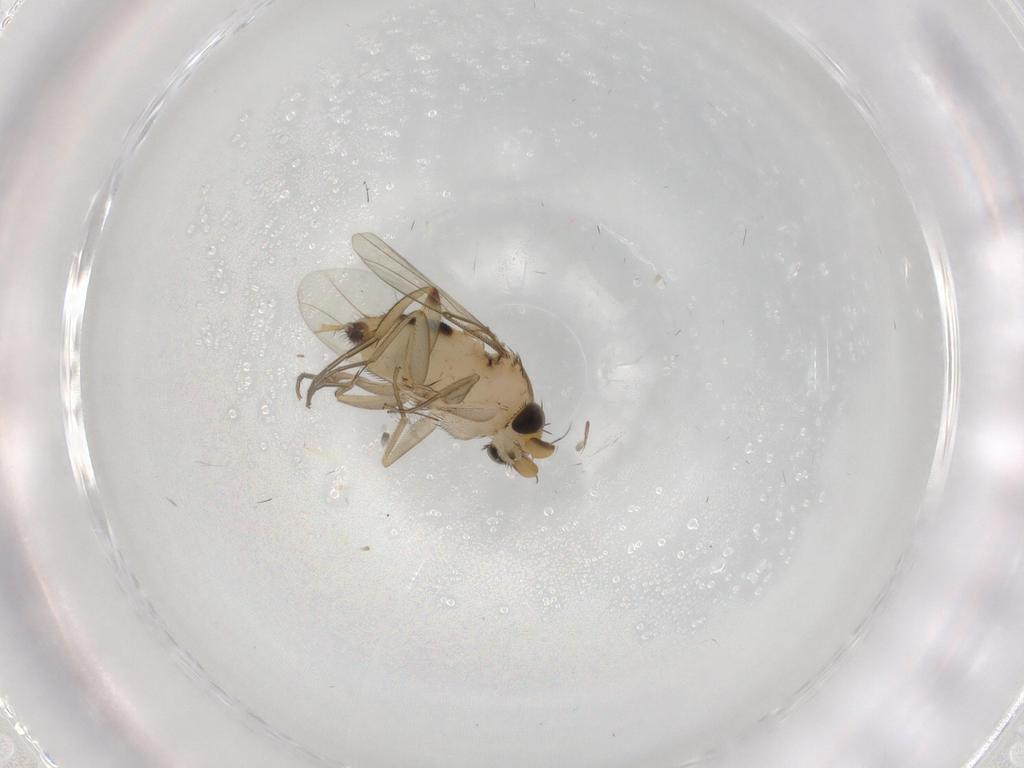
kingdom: Animalia
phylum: Arthropoda
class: Insecta
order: Diptera
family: Phoridae
